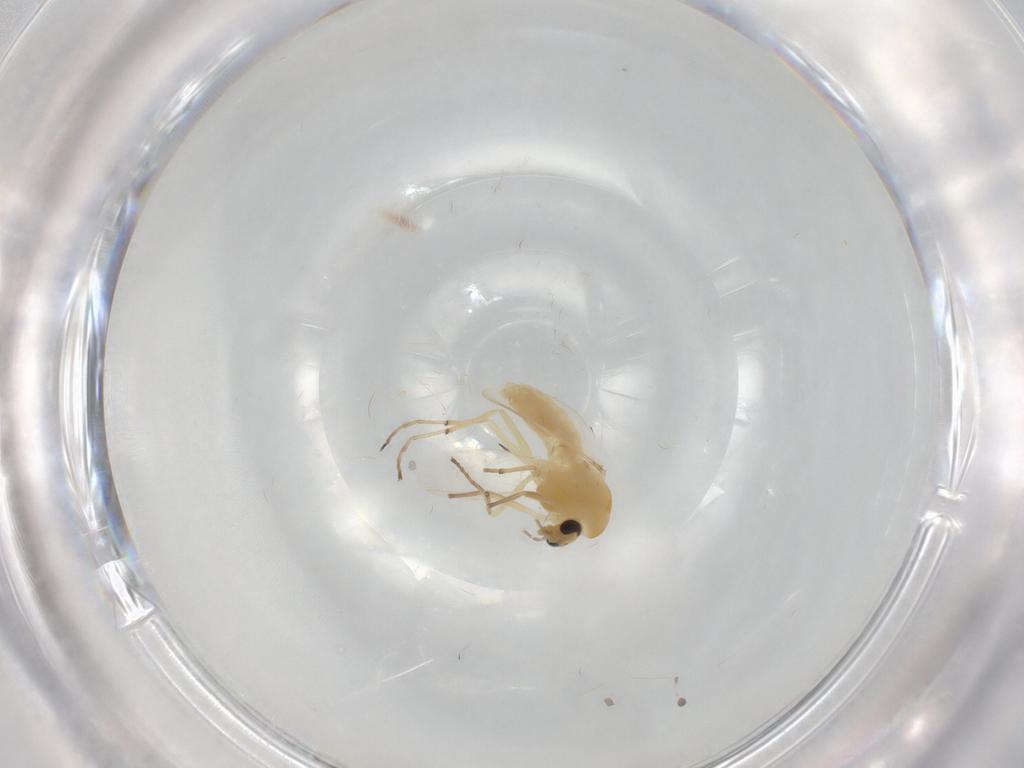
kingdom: Animalia
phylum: Arthropoda
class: Insecta
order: Diptera
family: Chironomidae
